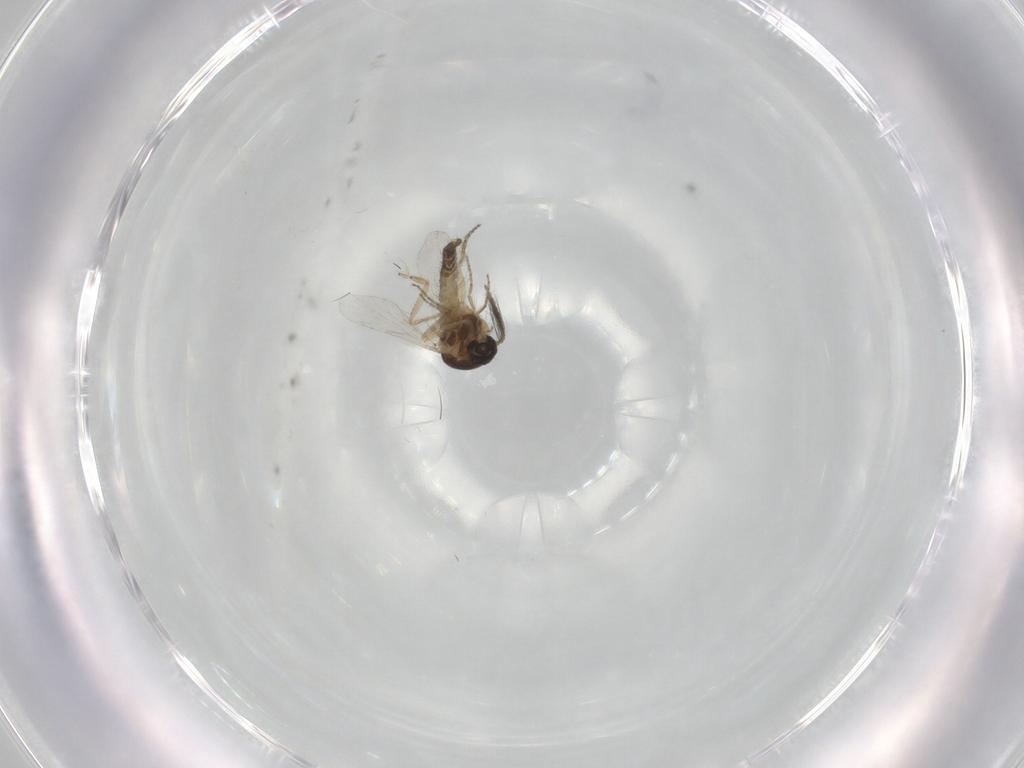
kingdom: Animalia
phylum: Arthropoda
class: Insecta
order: Diptera
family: Ceratopogonidae
